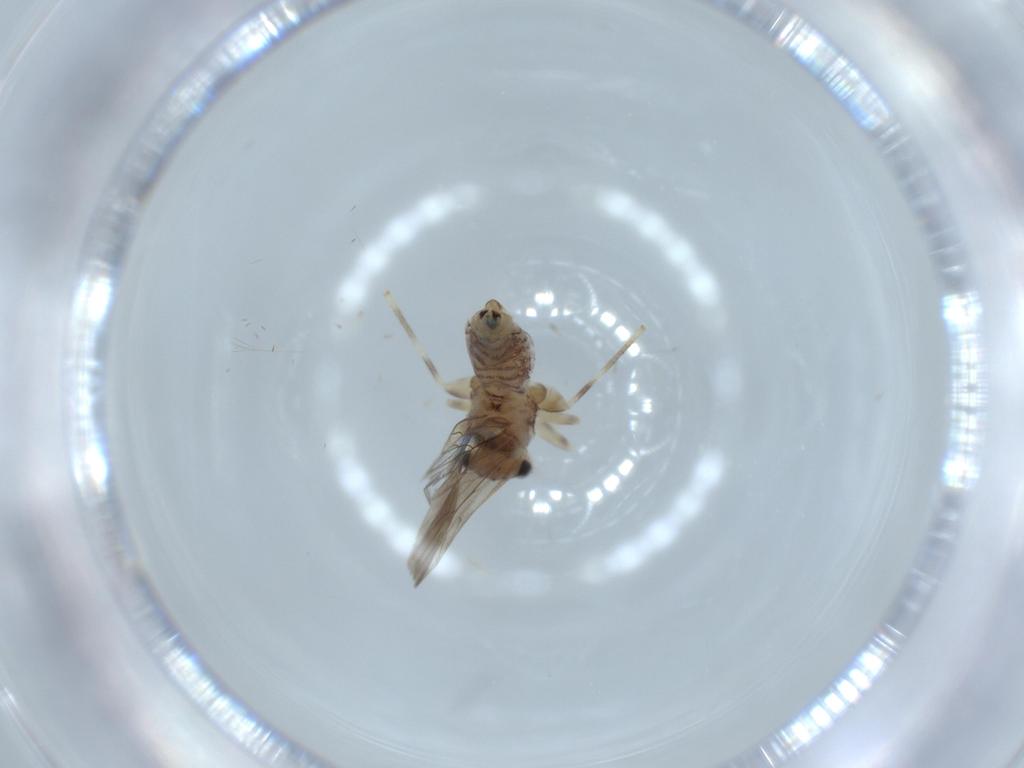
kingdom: Animalia
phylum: Arthropoda
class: Insecta
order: Psocodea
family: Lepidopsocidae
